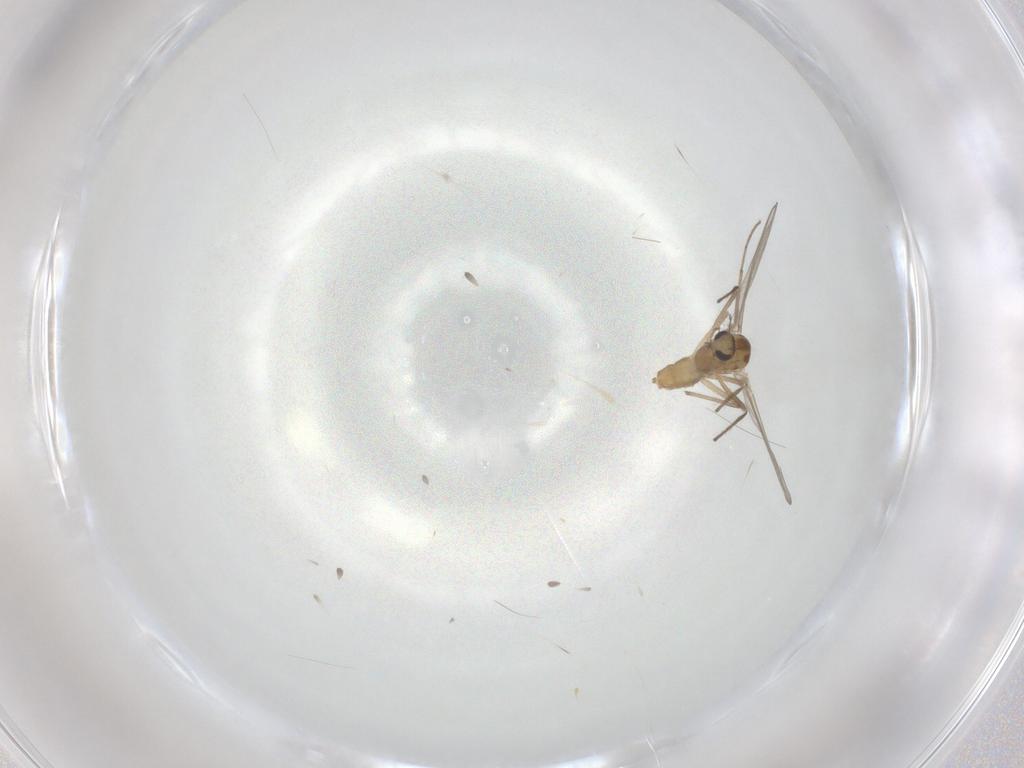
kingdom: Animalia
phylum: Arthropoda
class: Insecta
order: Diptera
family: Chironomidae
